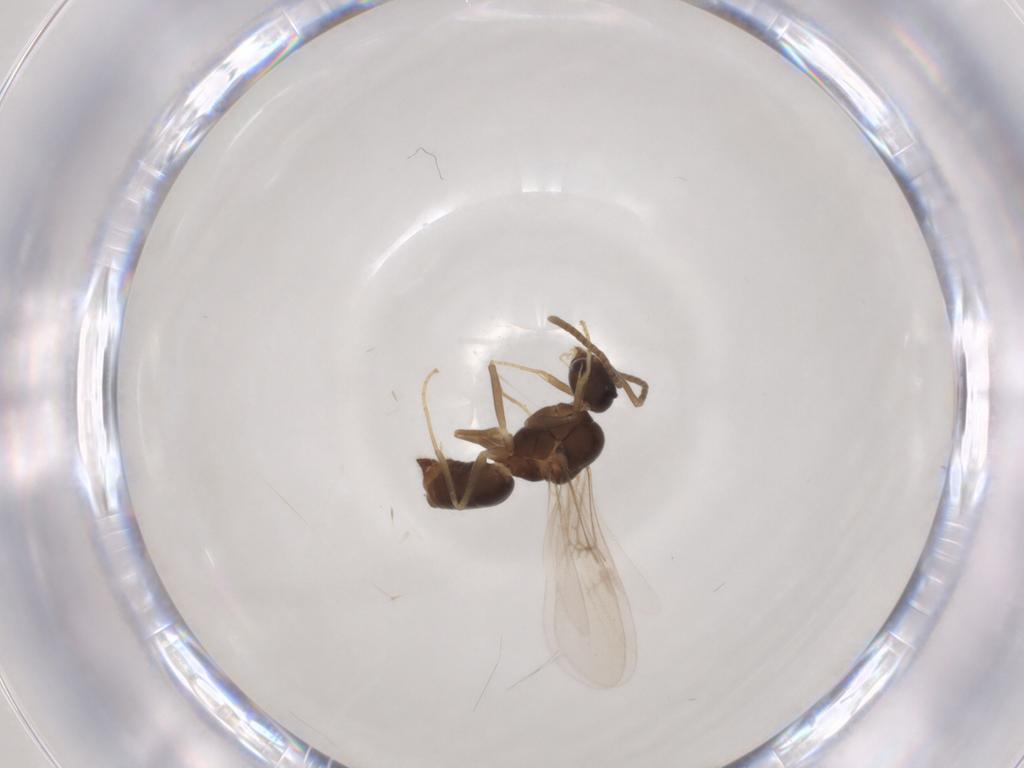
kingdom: Animalia
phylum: Arthropoda
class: Insecta
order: Hymenoptera
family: Formicidae
